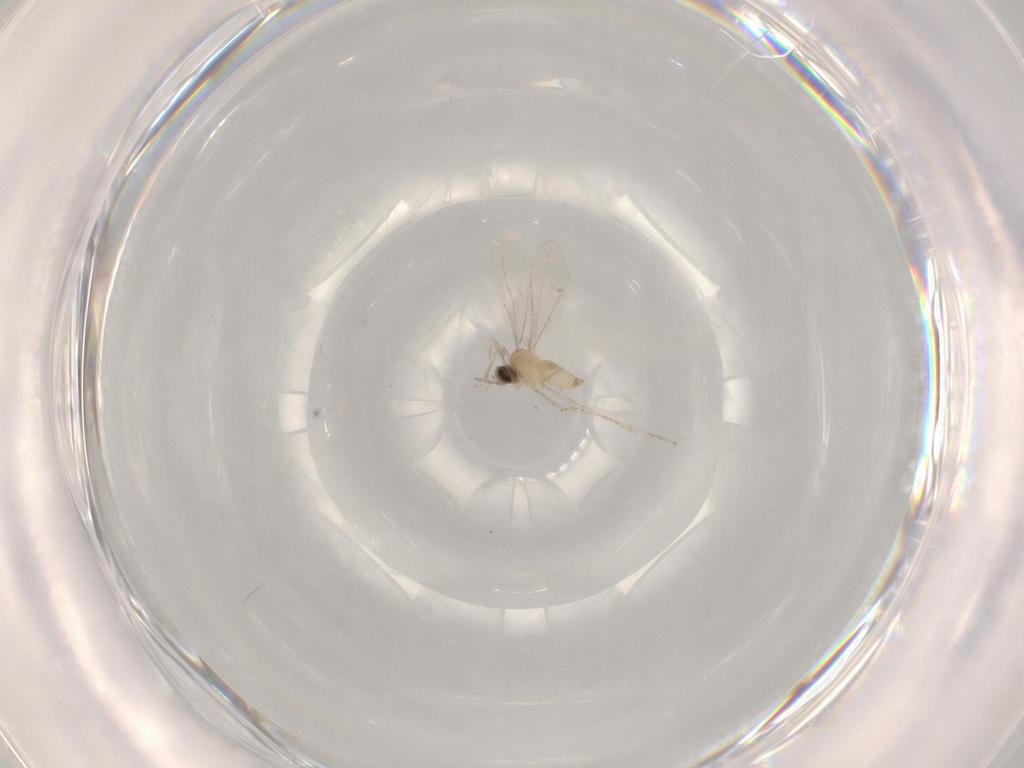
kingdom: Animalia
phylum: Arthropoda
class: Insecta
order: Diptera
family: Cecidomyiidae
